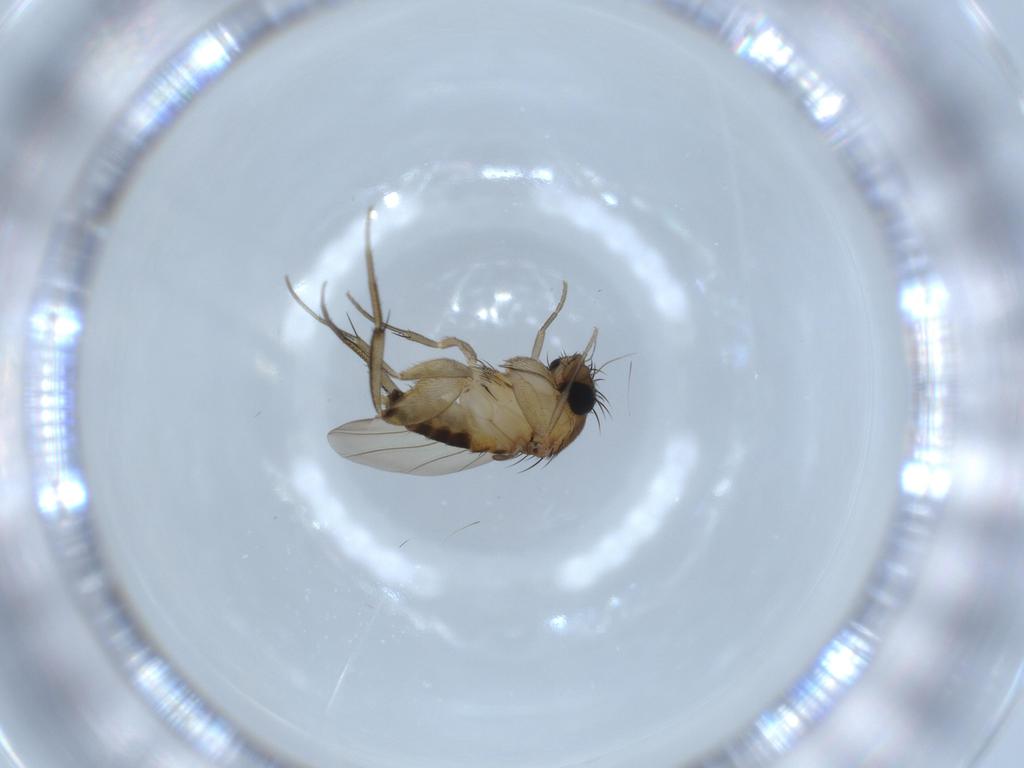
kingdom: Animalia
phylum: Arthropoda
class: Insecta
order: Diptera
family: Phoridae
